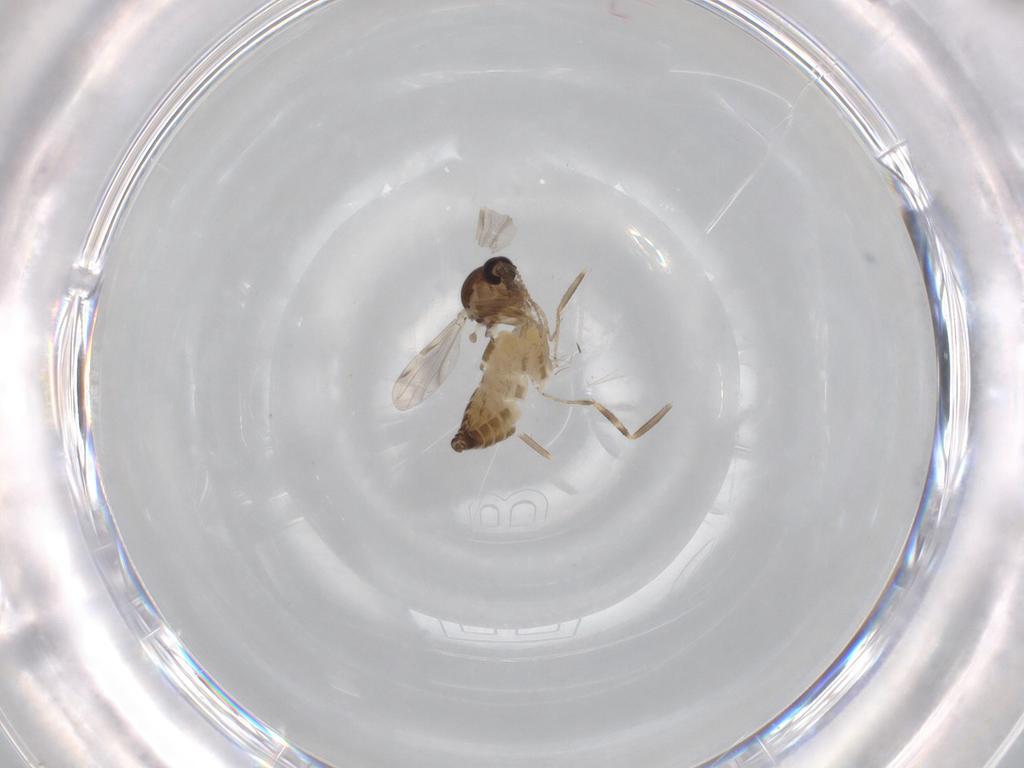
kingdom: Animalia
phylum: Arthropoda
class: Insecta
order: Diptera
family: Ceratopogonidae
